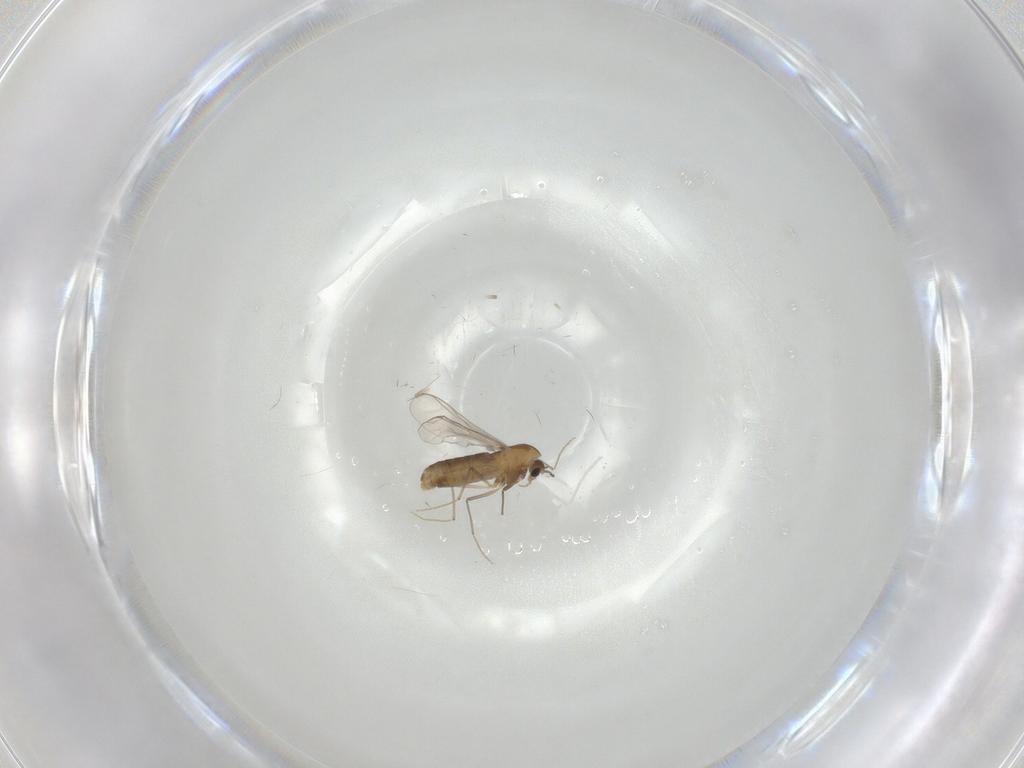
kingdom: Animalia
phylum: Arthropoda
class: Insecta
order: Diptera
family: Chironomidae
